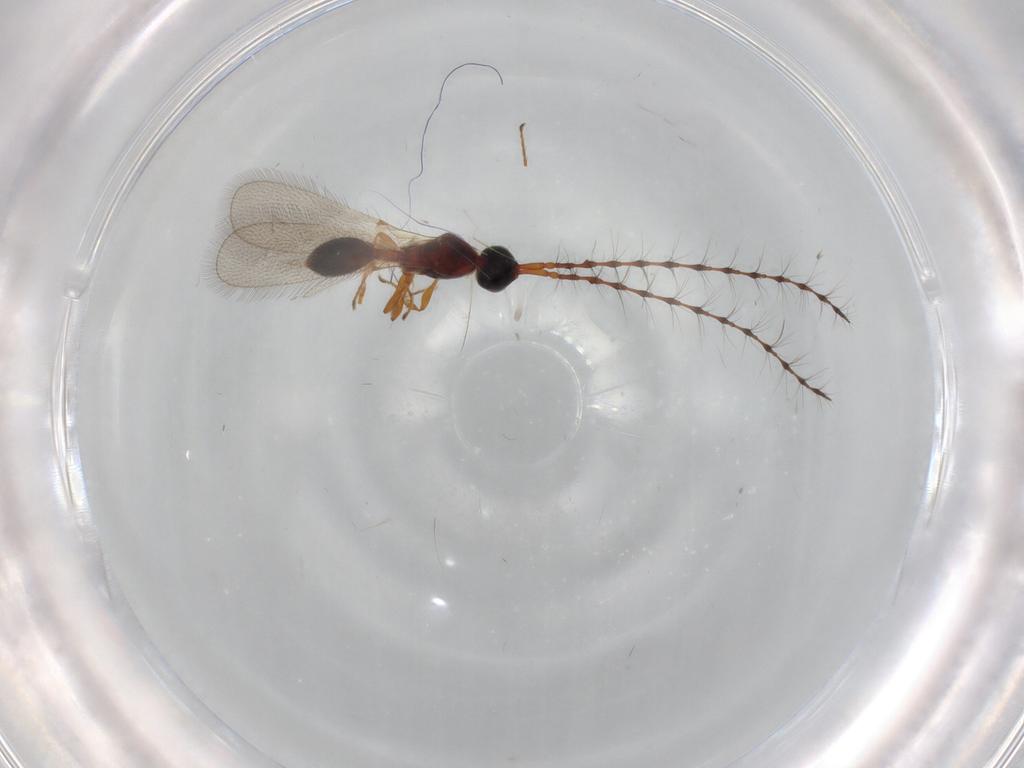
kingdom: Animalia
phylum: Arthropoda
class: Insecta
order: Hymenoptera
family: Diapriidae
